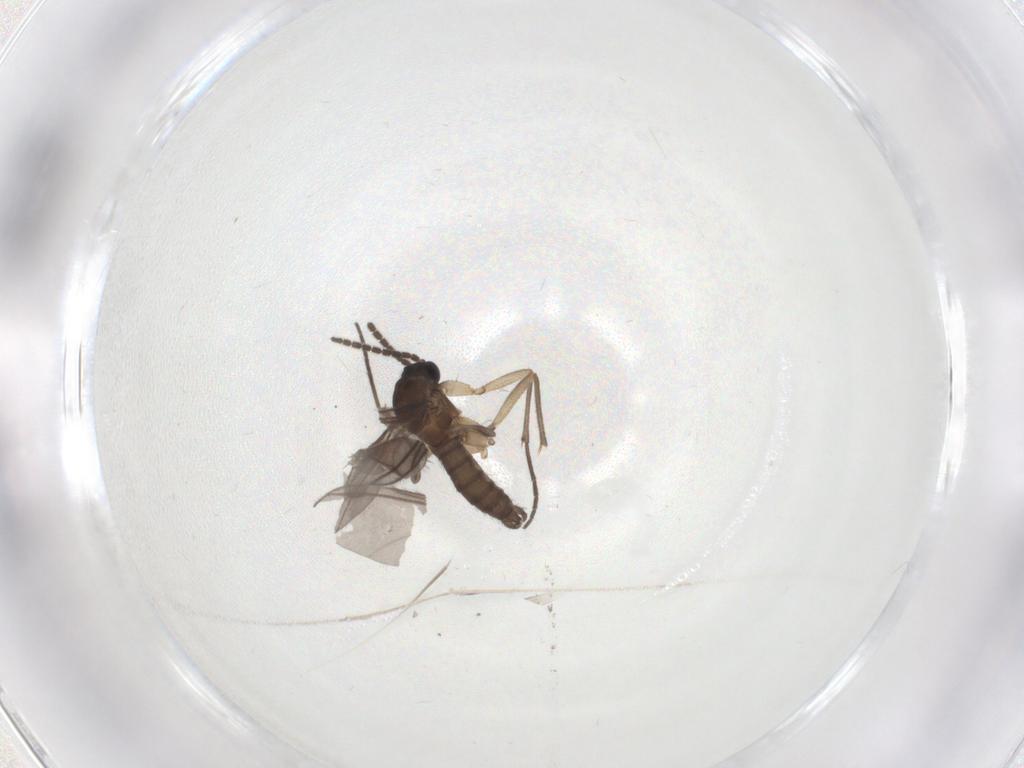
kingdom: Animalia
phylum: Arthropoda
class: Insecta
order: Diptera
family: Sciaridae
